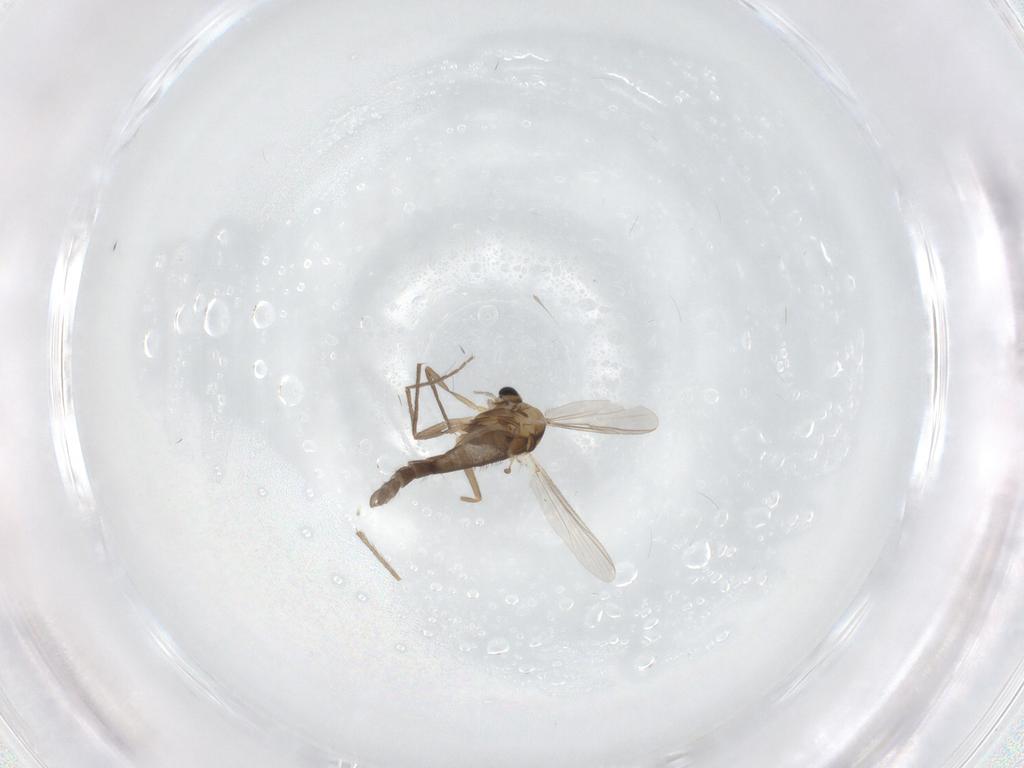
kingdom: Animalia
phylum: Arthropoda
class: Insecta
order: Diptera
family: Chironomidae
